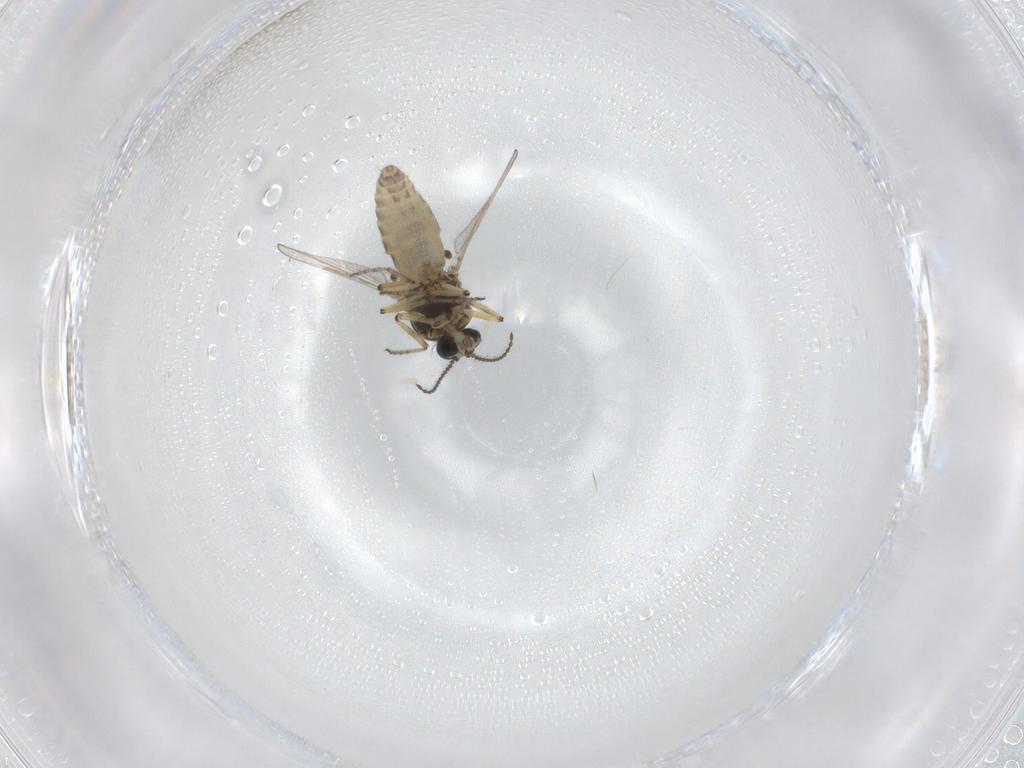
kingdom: Animalia
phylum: Arthropoda
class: Insecta
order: Diptera
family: Ceratopogonidae
